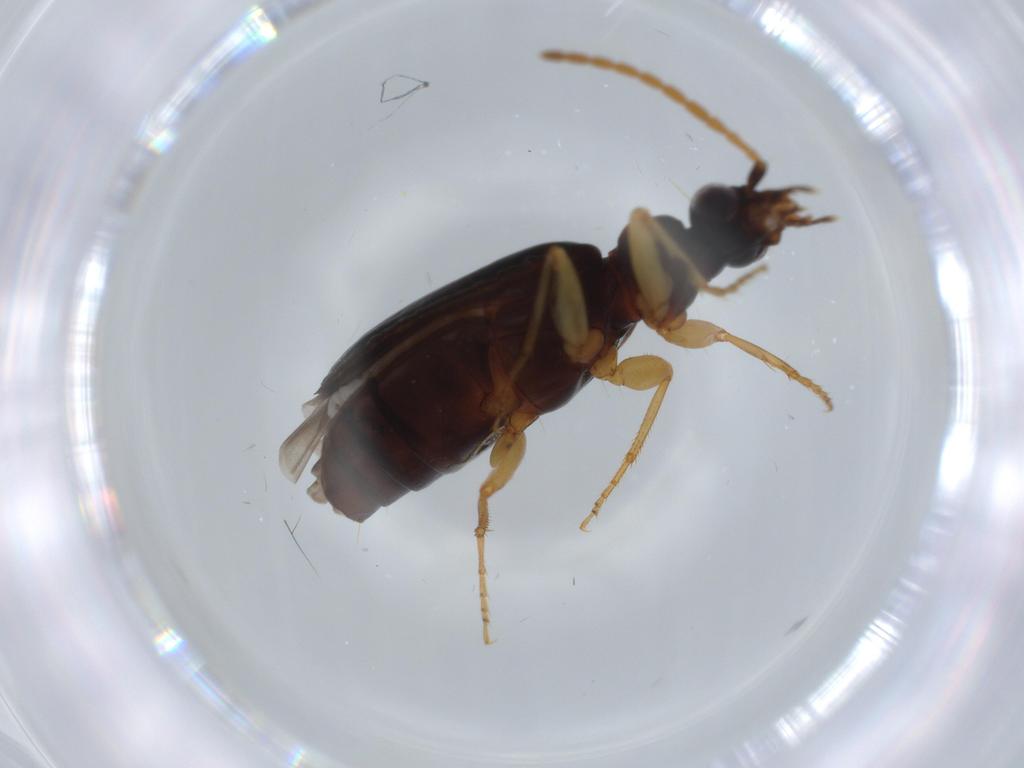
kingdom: Animalia
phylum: Arthropoda
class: Insecta
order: Coleoptera
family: Carabidae
